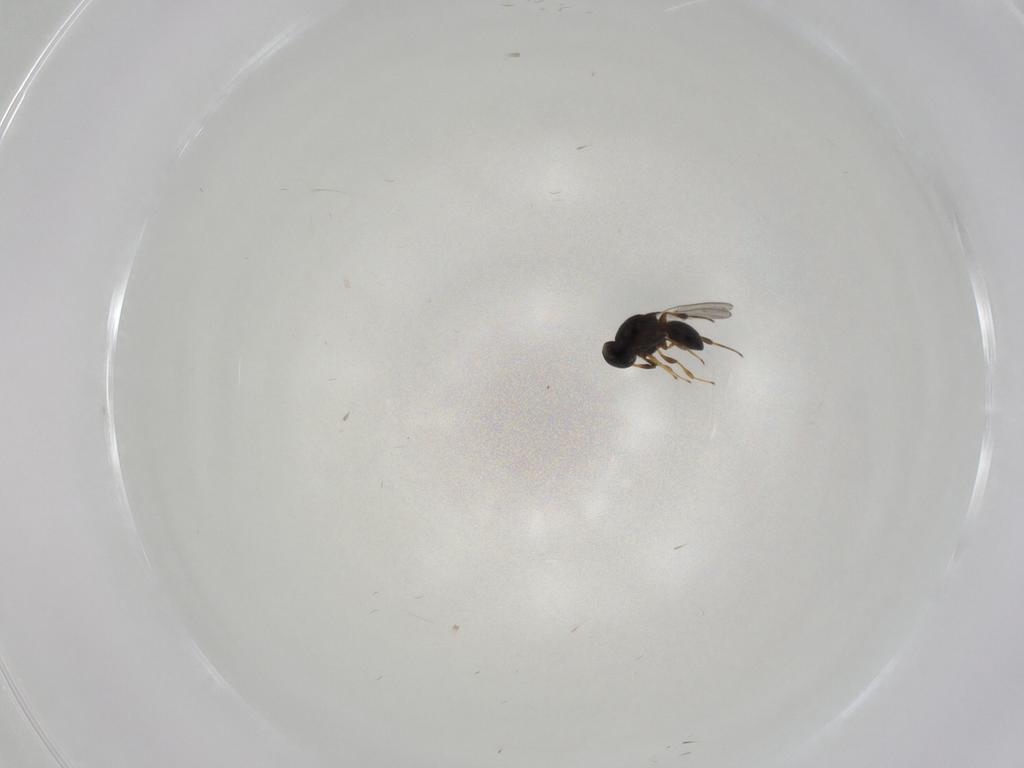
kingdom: Animalia
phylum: Arthropoda
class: Insecta
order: Hymenoptera
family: Platygastridae
